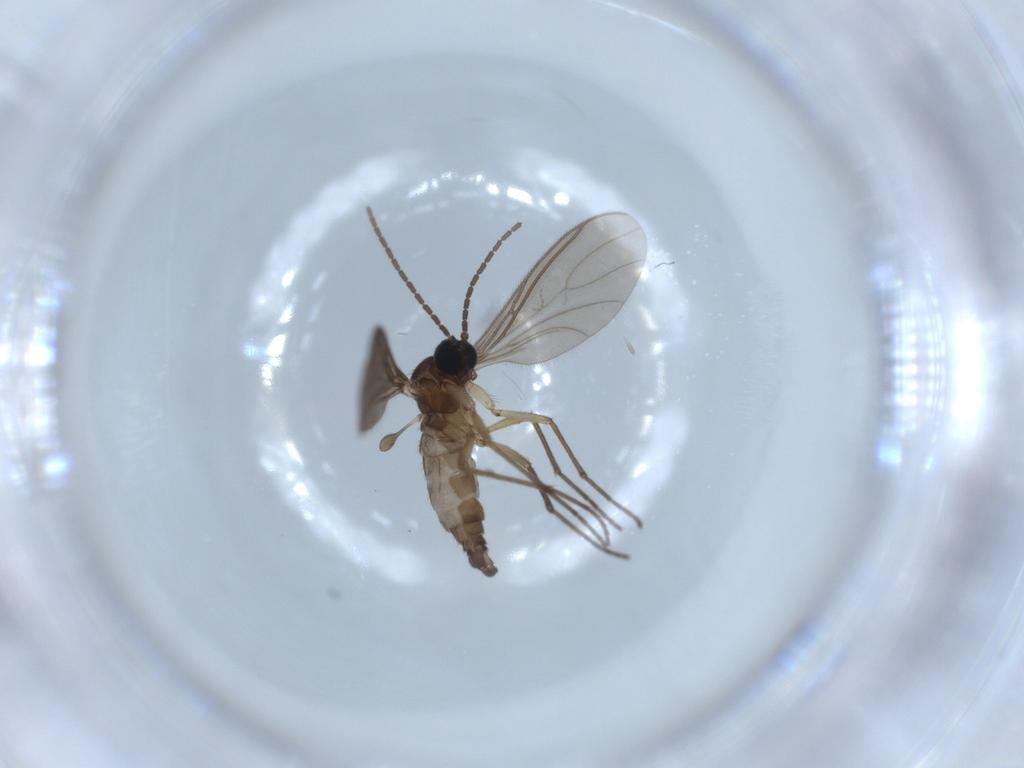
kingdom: Animalia
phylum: Arthropoda
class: Insecta
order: Diptera
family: Sciaridae
